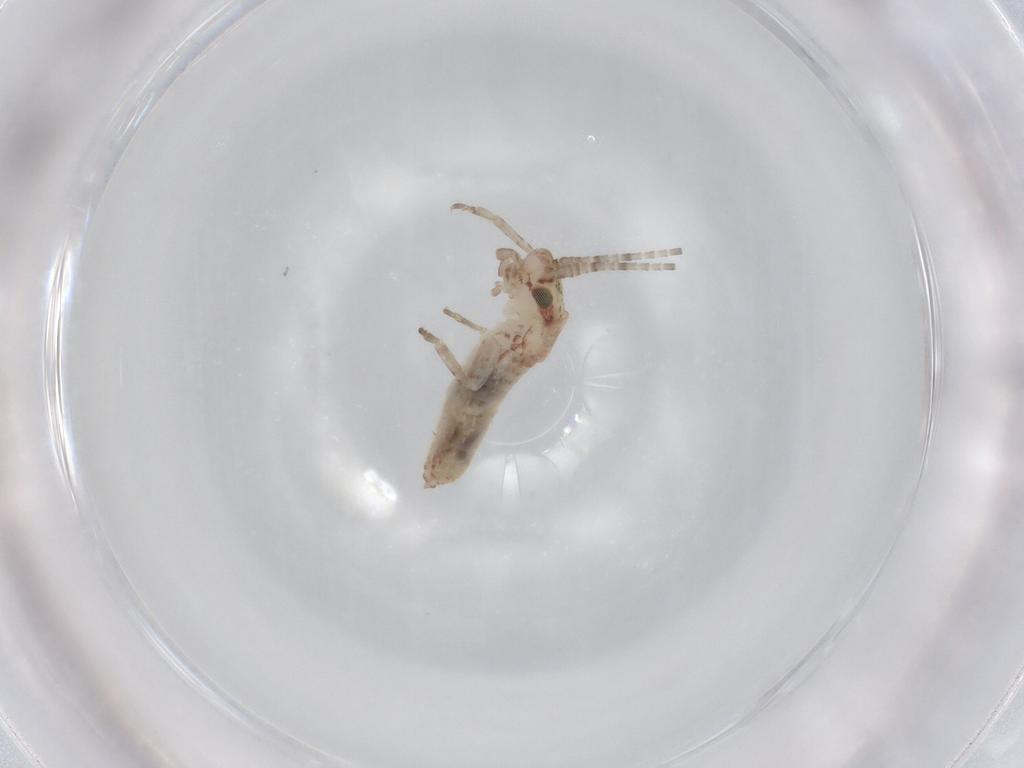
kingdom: Animalia
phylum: Arthropoda
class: Insecta
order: Orthoptera
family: Mogoplistidae
